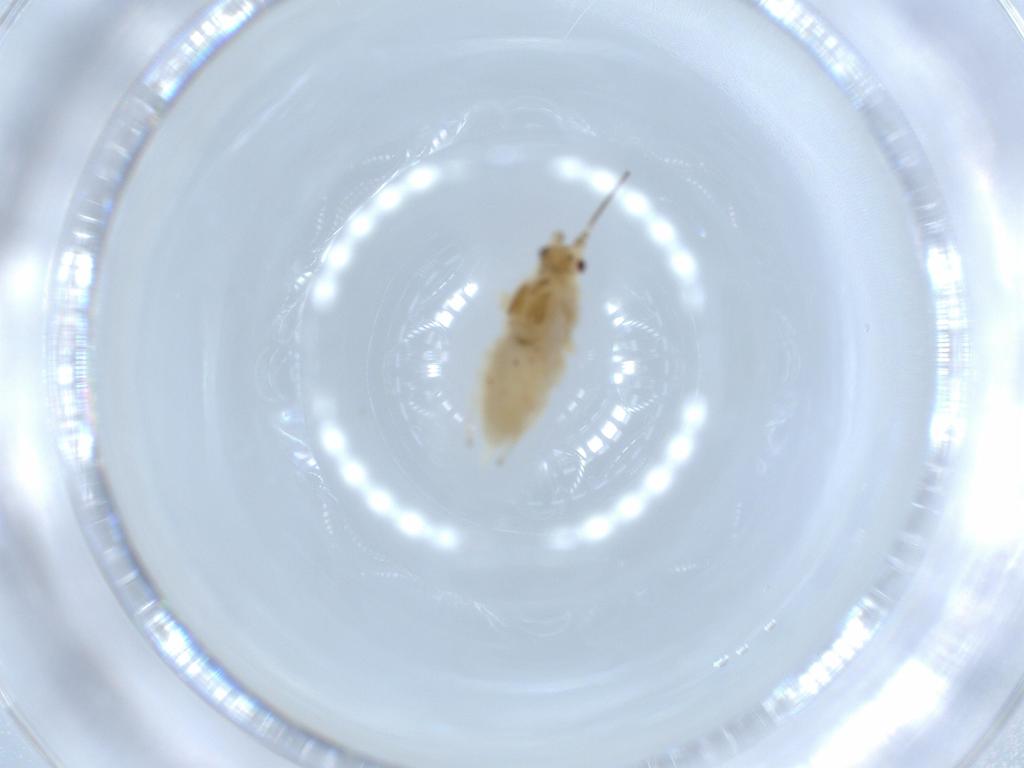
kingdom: Animalia
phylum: Arthropoda
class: Insecta
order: Hemiptera
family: Aphididae
